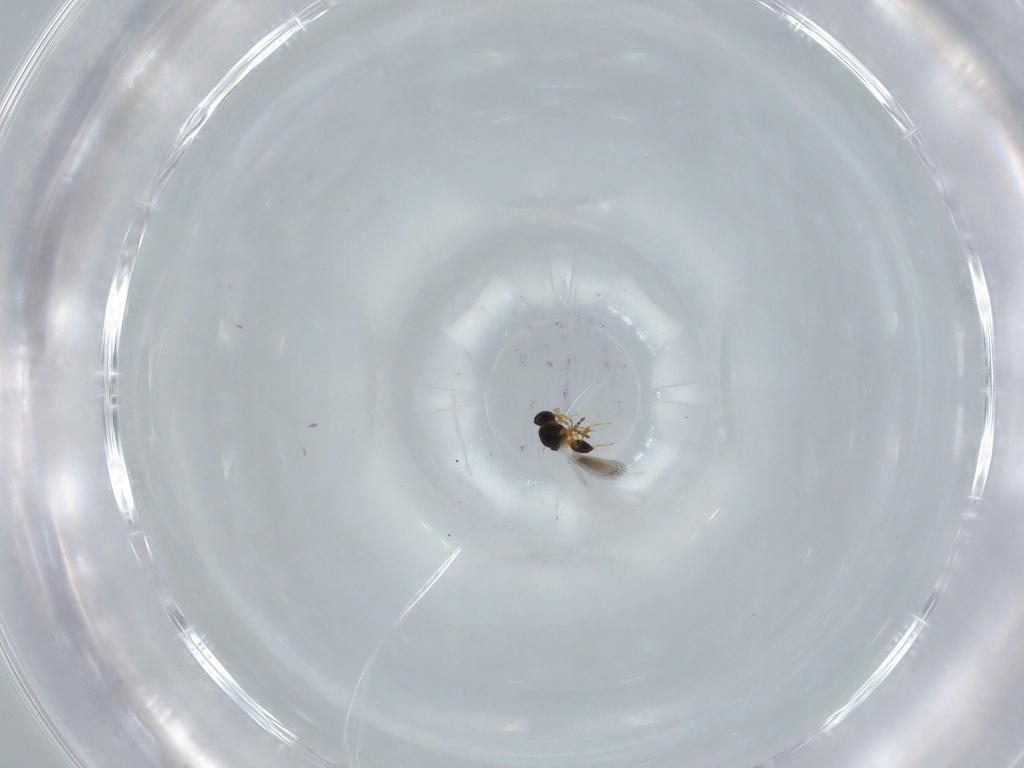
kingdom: Animalia
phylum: Arthropoda
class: Insecta
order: Hymenoptera
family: Platygastridae
